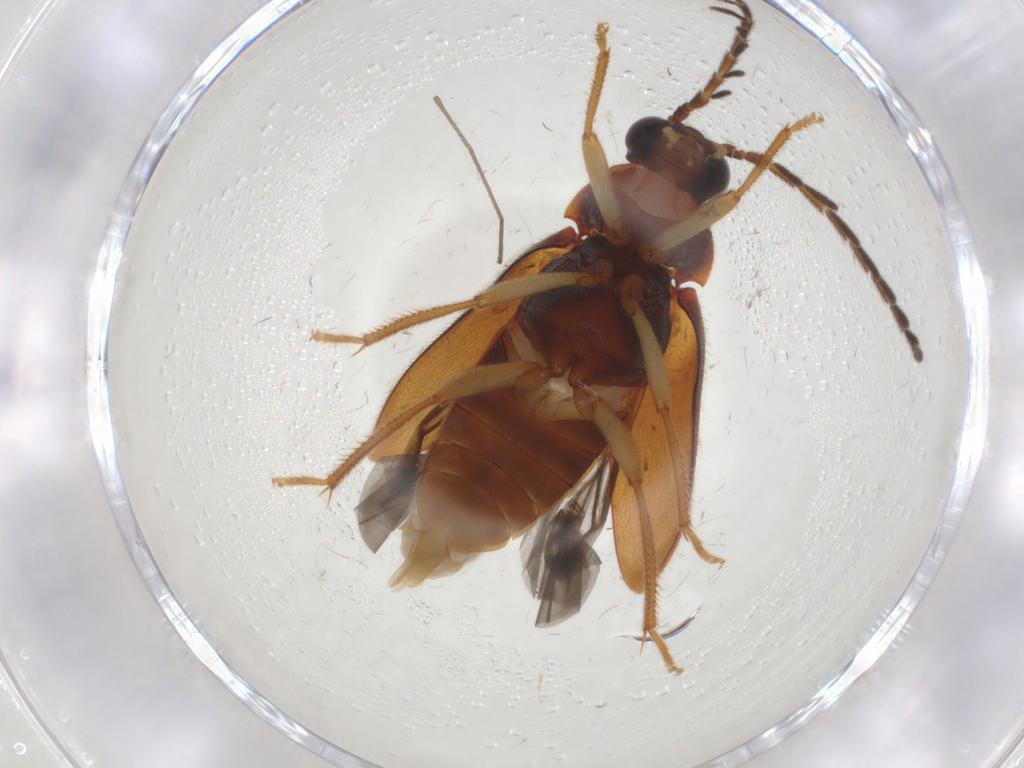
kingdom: Animalia
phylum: Arthropoda
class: Insecta
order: Coleoptera
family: Ptilodactylidae
